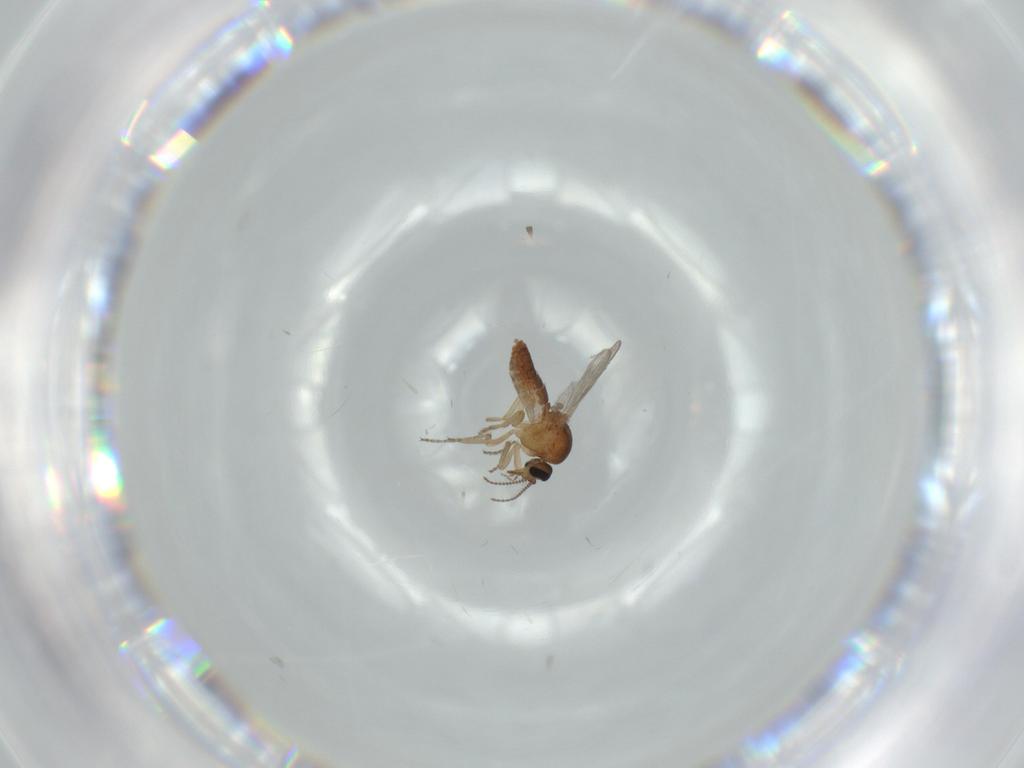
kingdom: Animalia
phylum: Arthropoda
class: Insecta
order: Diptera
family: Ceratopogonidae
